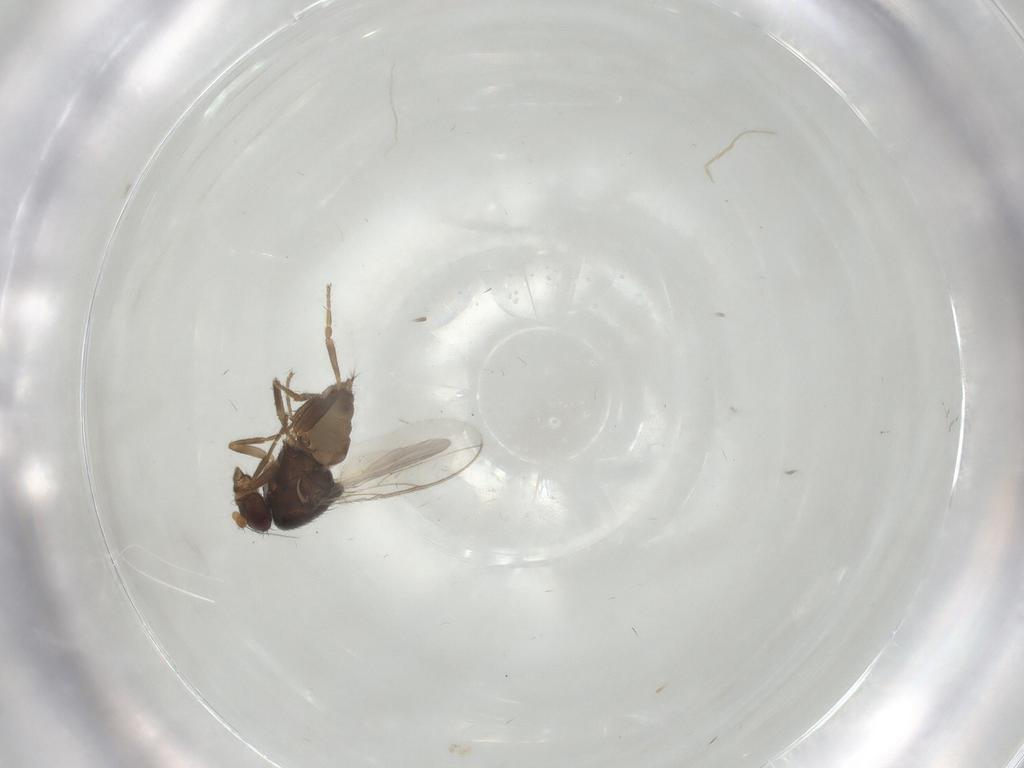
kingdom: Animalia
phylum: Arthropoda
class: Insecta
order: Diptera
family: Sphaeroceridae
